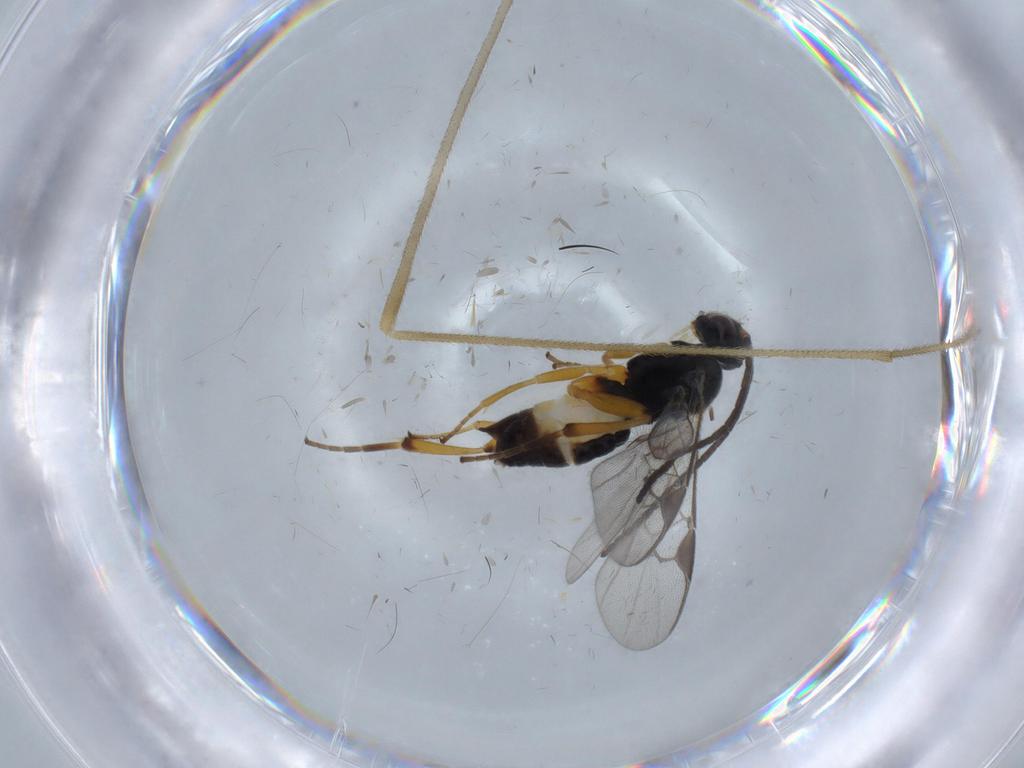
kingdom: Animalia
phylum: Arthropoda
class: Insecta
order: Hymenoptera
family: Braconidae
